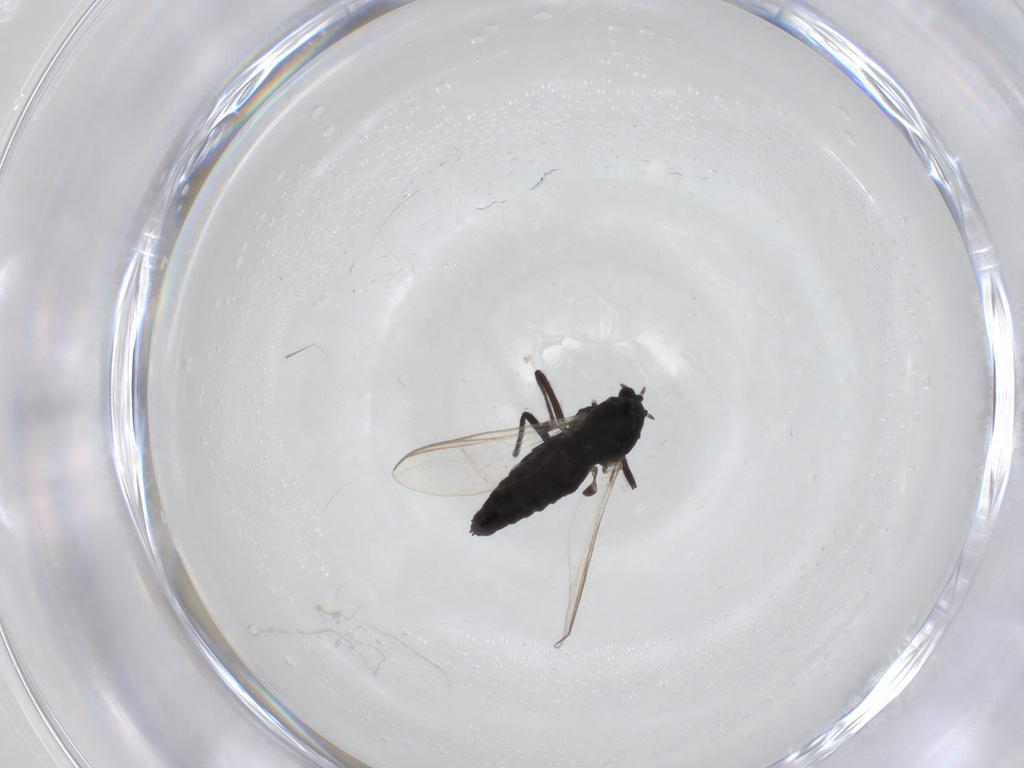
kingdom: Animalia
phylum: Arthropoda
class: Insecta
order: Diptera
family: Chironomidae
